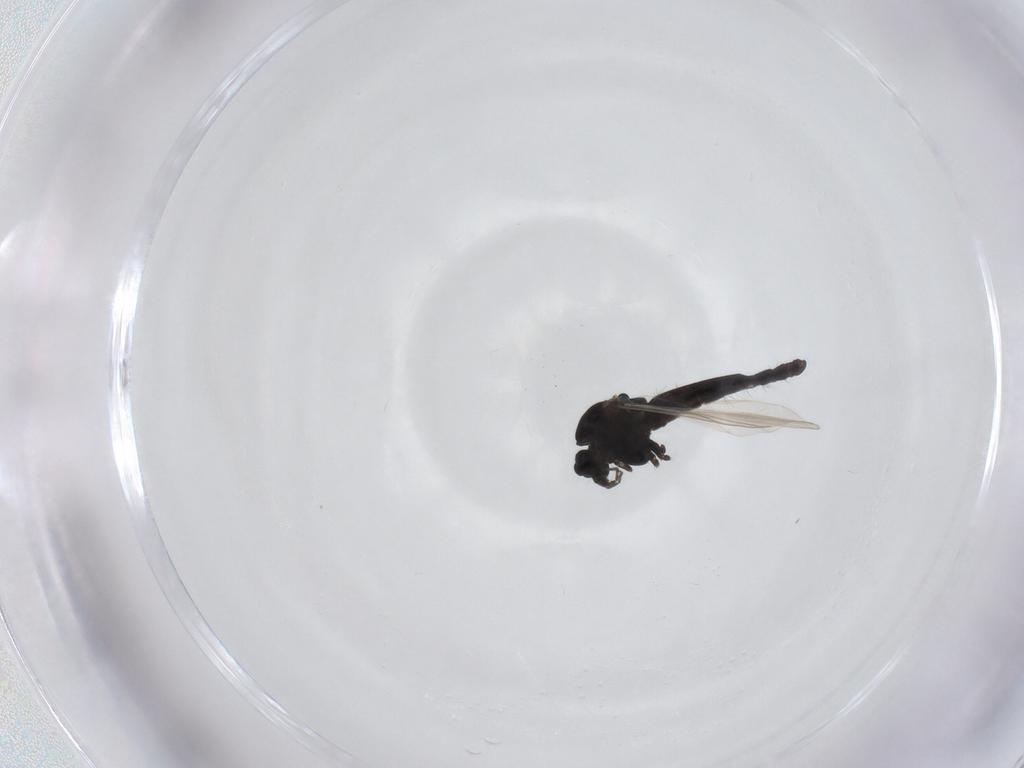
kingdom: Animalia
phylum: Arthropoda
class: Insecta
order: Diptera
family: Chironomidae
